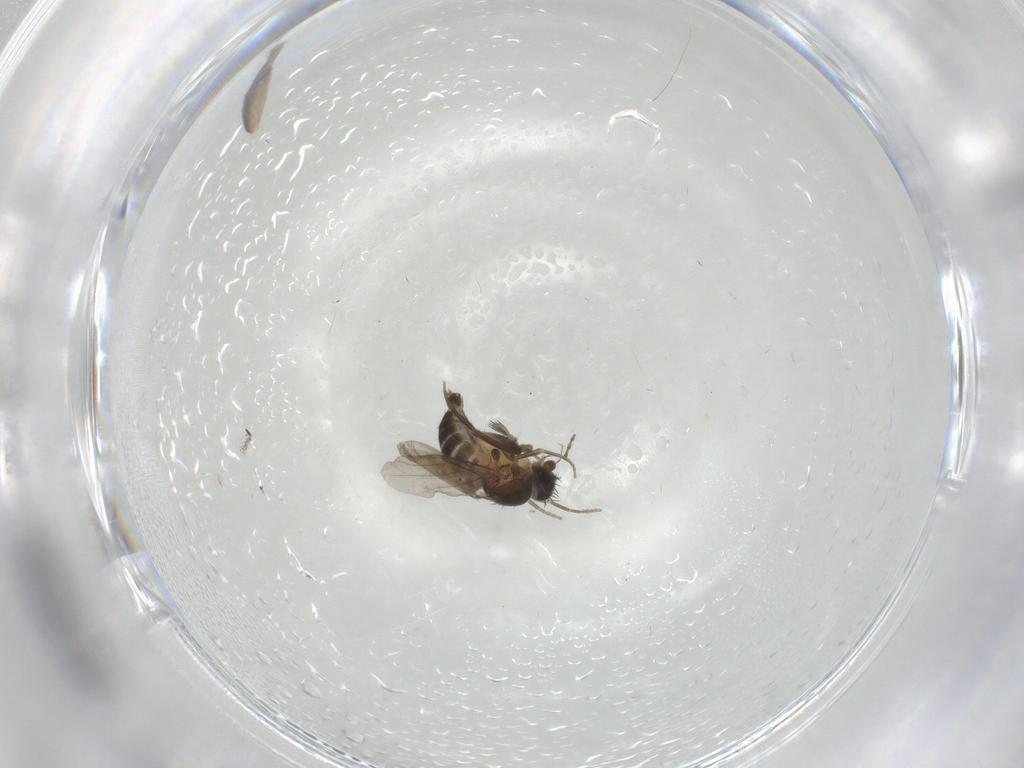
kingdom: Animalia
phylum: Arthropoda
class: Insecta
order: Diptera
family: Phoridae
